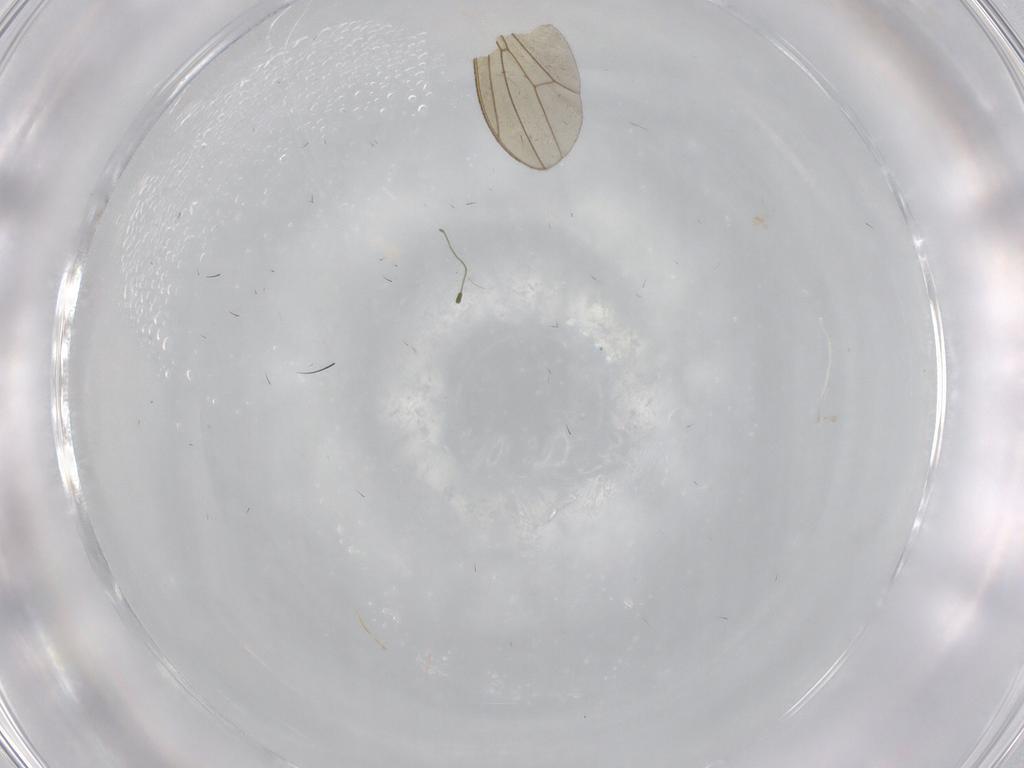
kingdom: Animalia
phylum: Arthropoda
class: Insecta
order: Diptera
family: Drosophilidae
